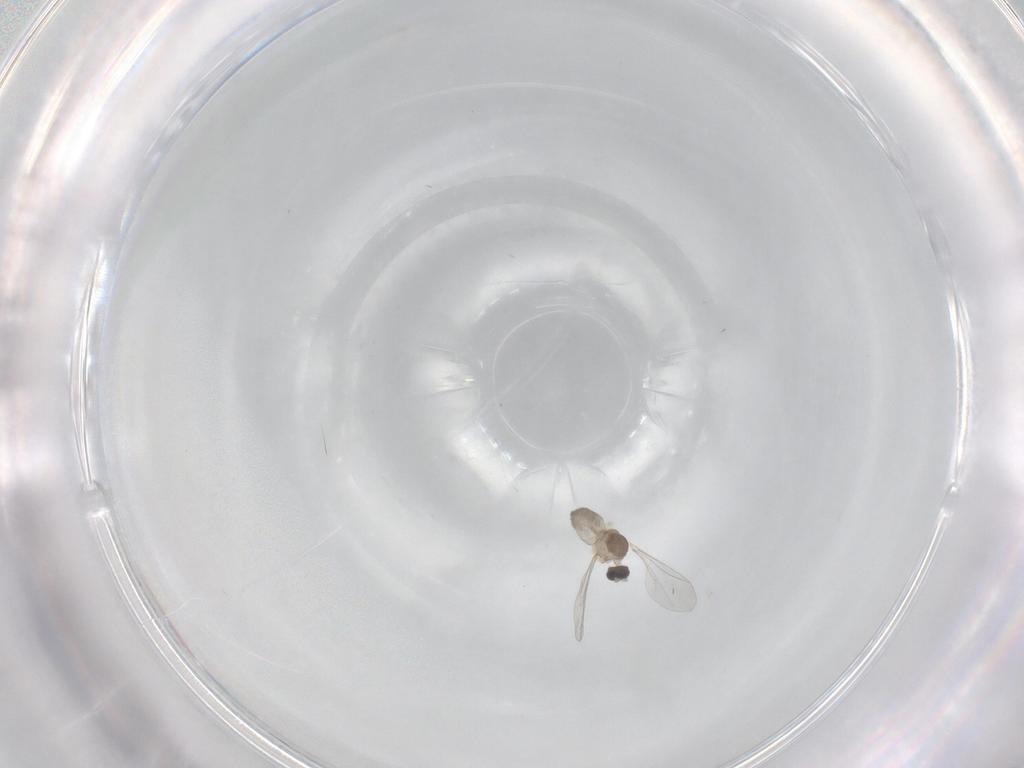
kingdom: Animalia
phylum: Arthropoda
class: Insecta
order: Diptera
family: Cecidomyiidae
